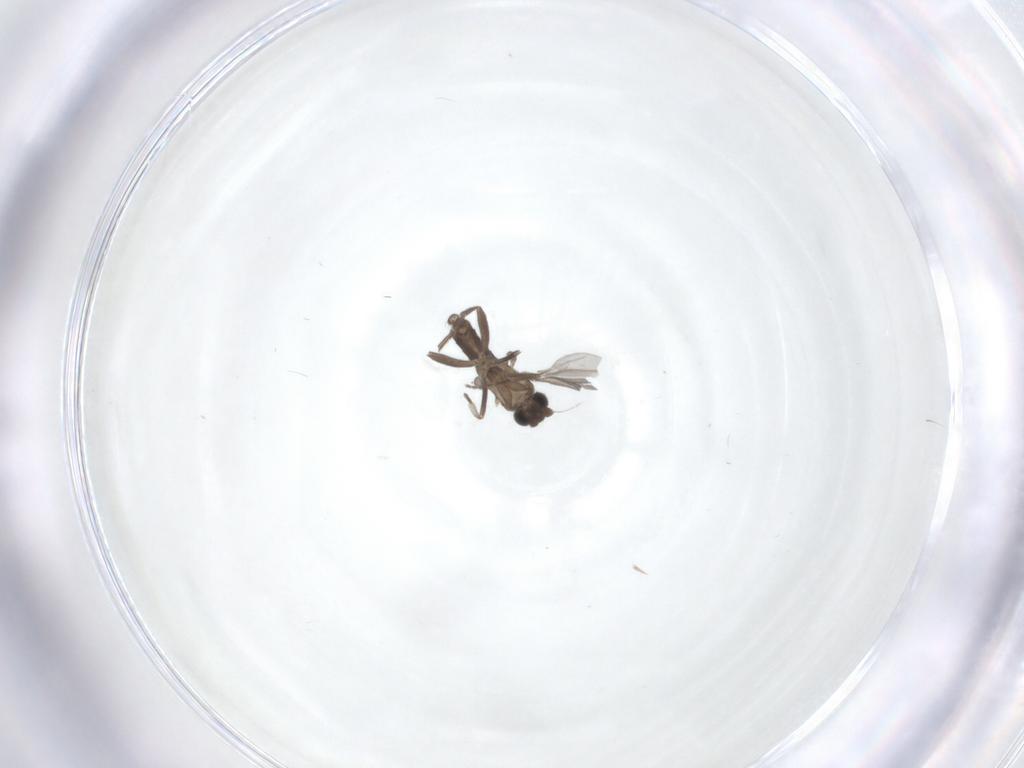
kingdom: Animalia
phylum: Arthropoda
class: Insecta
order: Diptera
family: Phoridae
